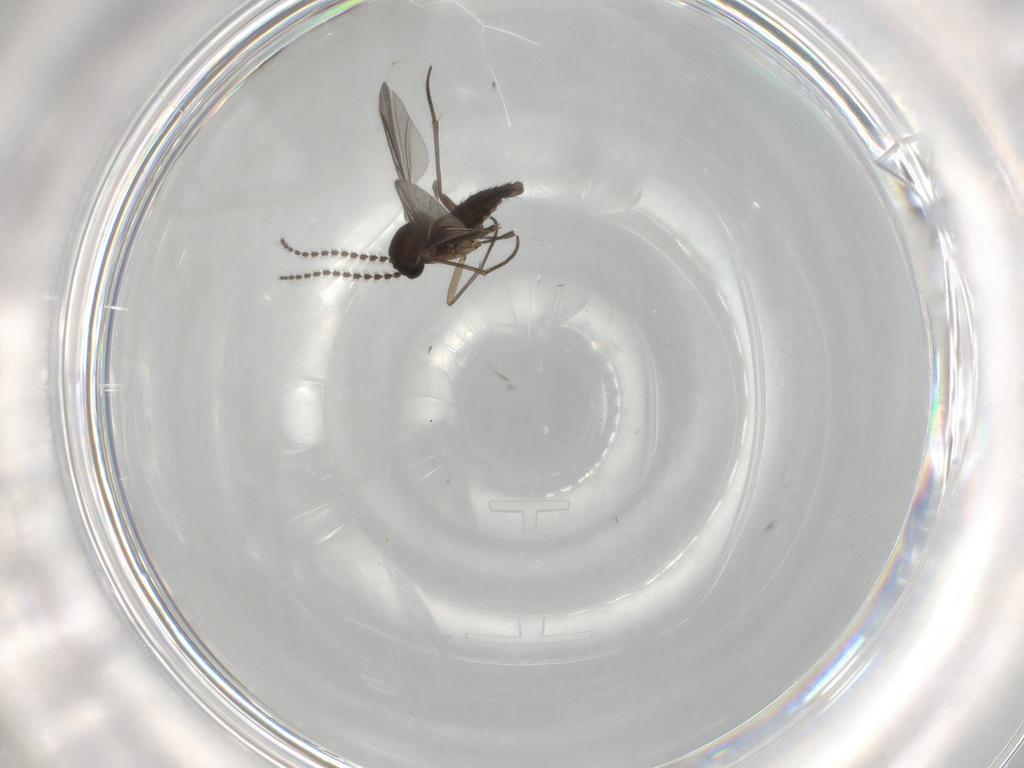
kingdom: Animalia
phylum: Arthropoda
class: Insecta
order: Diptera
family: Sciaridae
